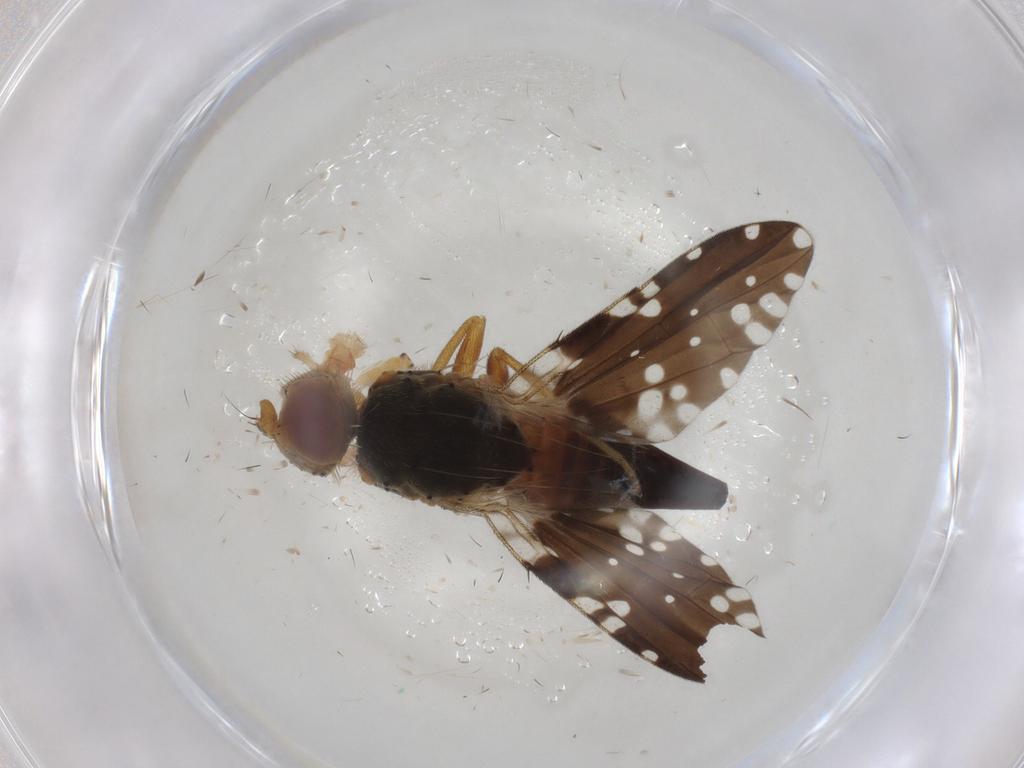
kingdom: Animalia
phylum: Arthropoda
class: Insecta
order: Diptera
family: Tephritidae
